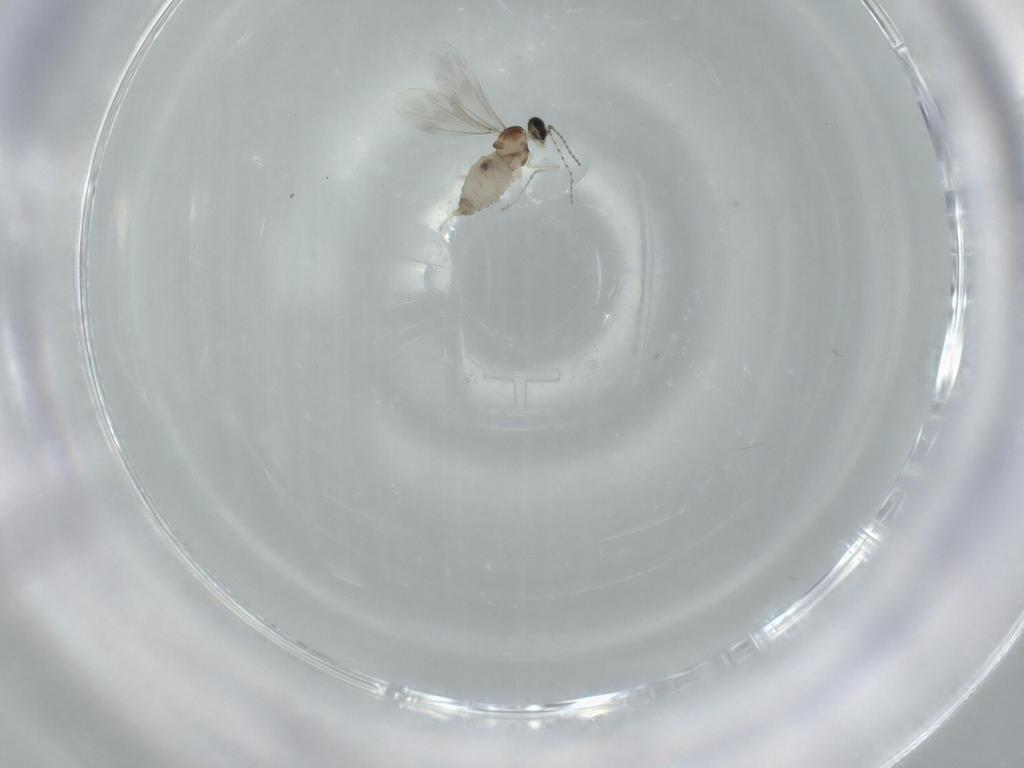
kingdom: Animalia
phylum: Arthropoda
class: Insecta
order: Diptera
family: Cecidomyiidae
